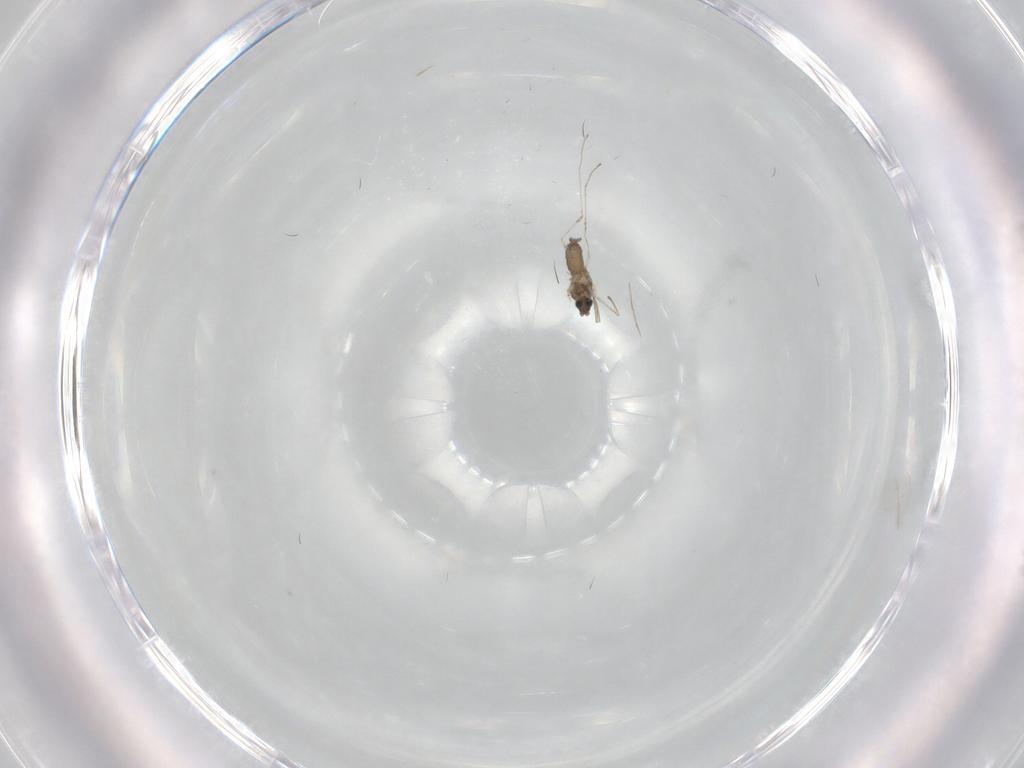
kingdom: Animalia
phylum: Arthropoda
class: Insecta
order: Diptera
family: Cecidomyiidae
